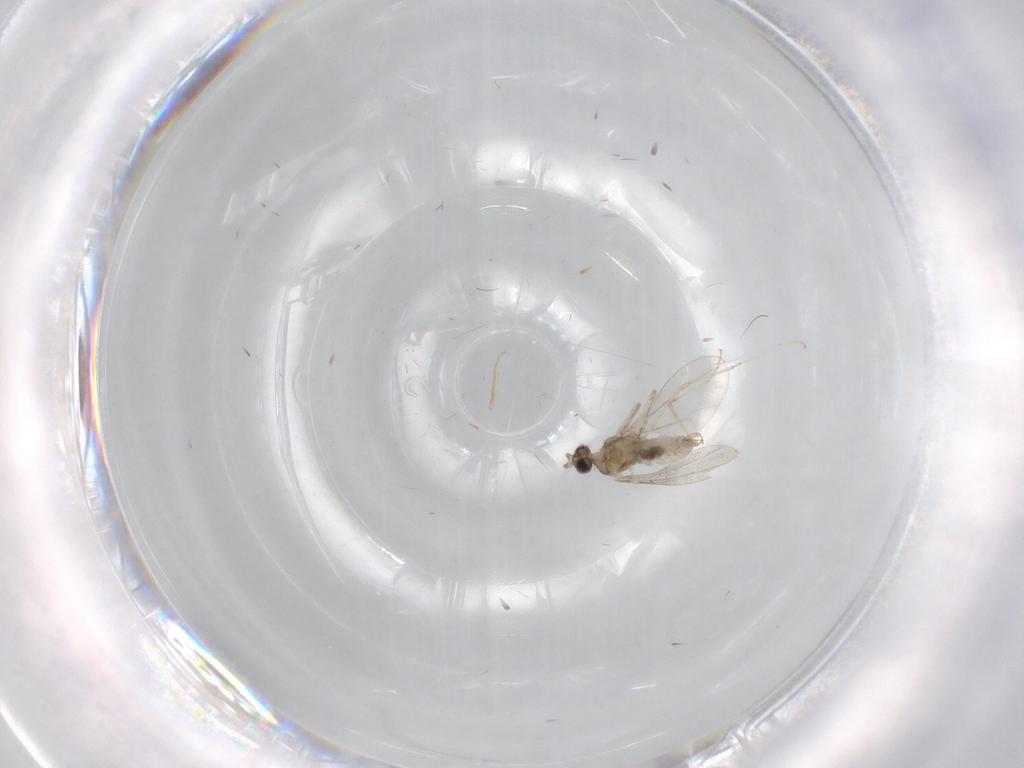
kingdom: Animalia
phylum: Arthropoda
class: Insecta
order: Diptera
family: Cecidomyiidae
